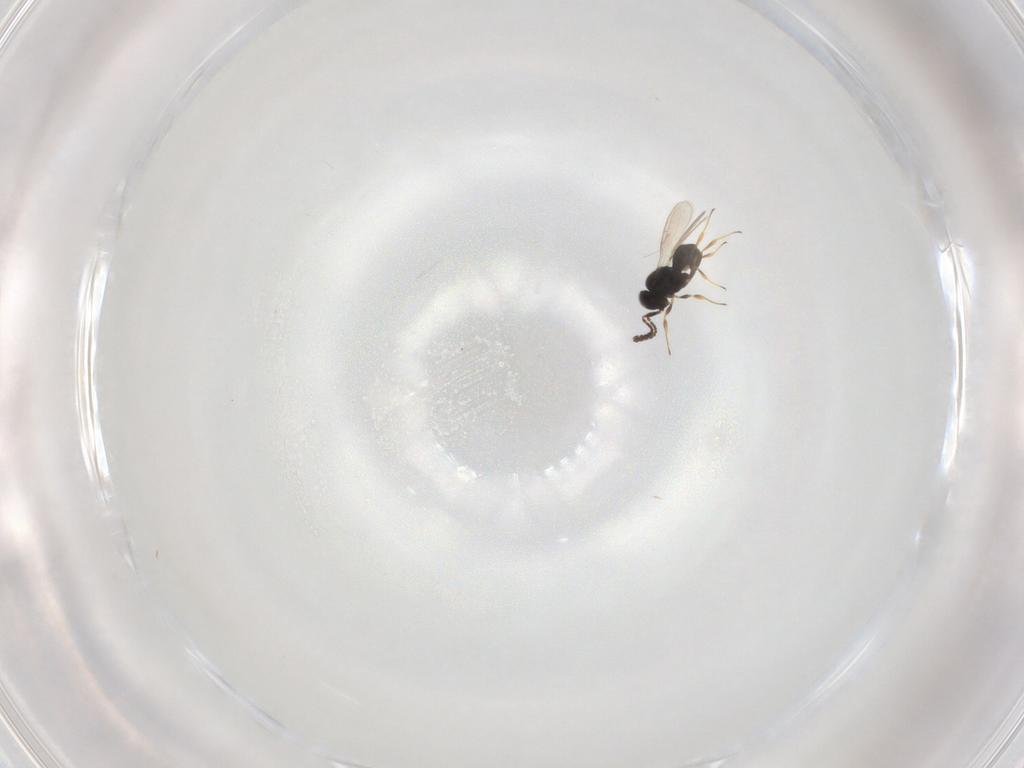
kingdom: Animalia
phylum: Arthropoda
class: Insecta
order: Hymenoptera
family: Scelionidae
